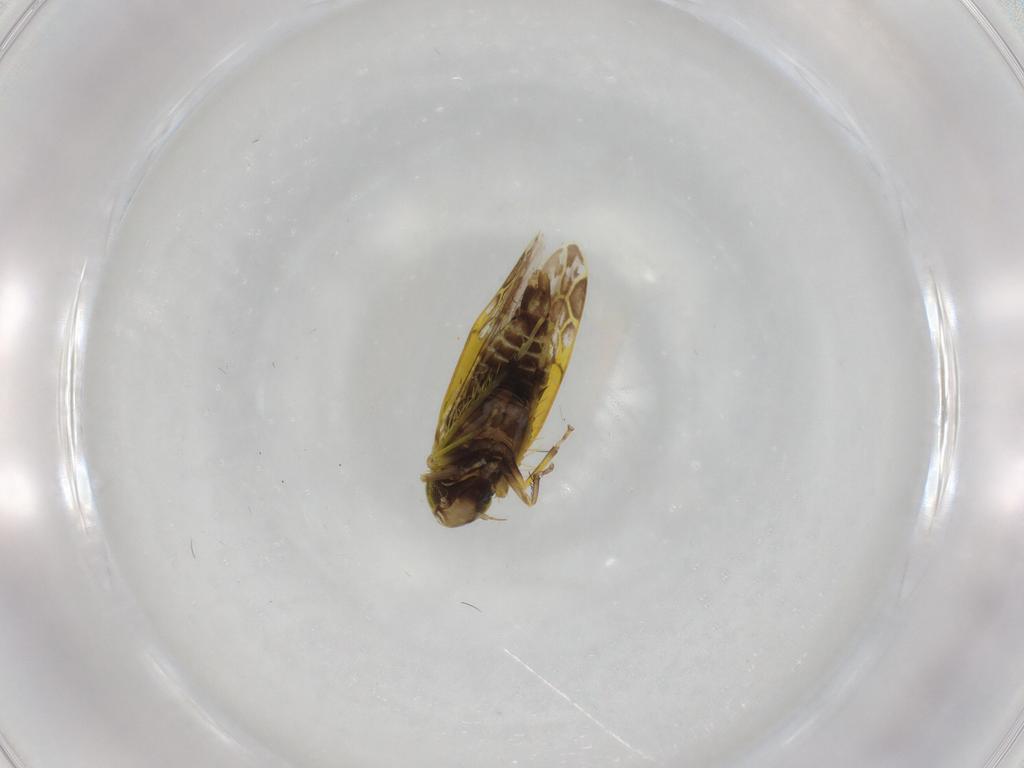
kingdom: Animalia
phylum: Arthropoda
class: Insecta
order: Hemiptera
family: Cicadellidae
